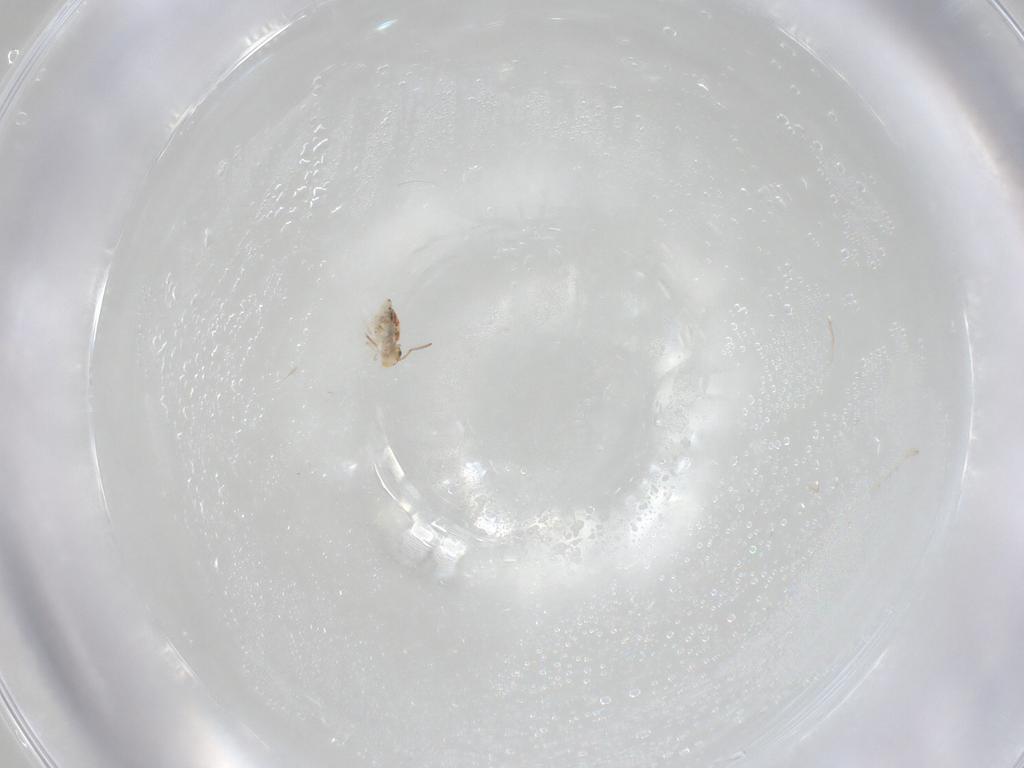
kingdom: Animalia
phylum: Arthropoda
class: Collembola
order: Symphypleona
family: Bourletiellidae
